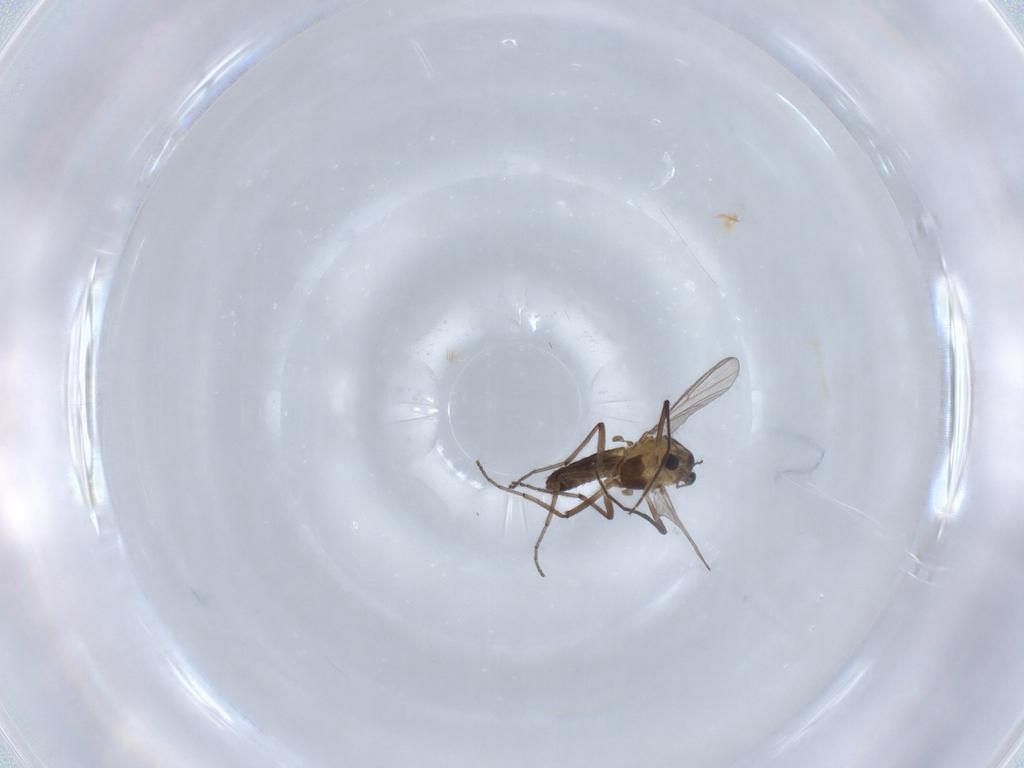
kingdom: Animalia
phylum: Arthropoda
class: Insecta
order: Diptera
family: Chironomidae
